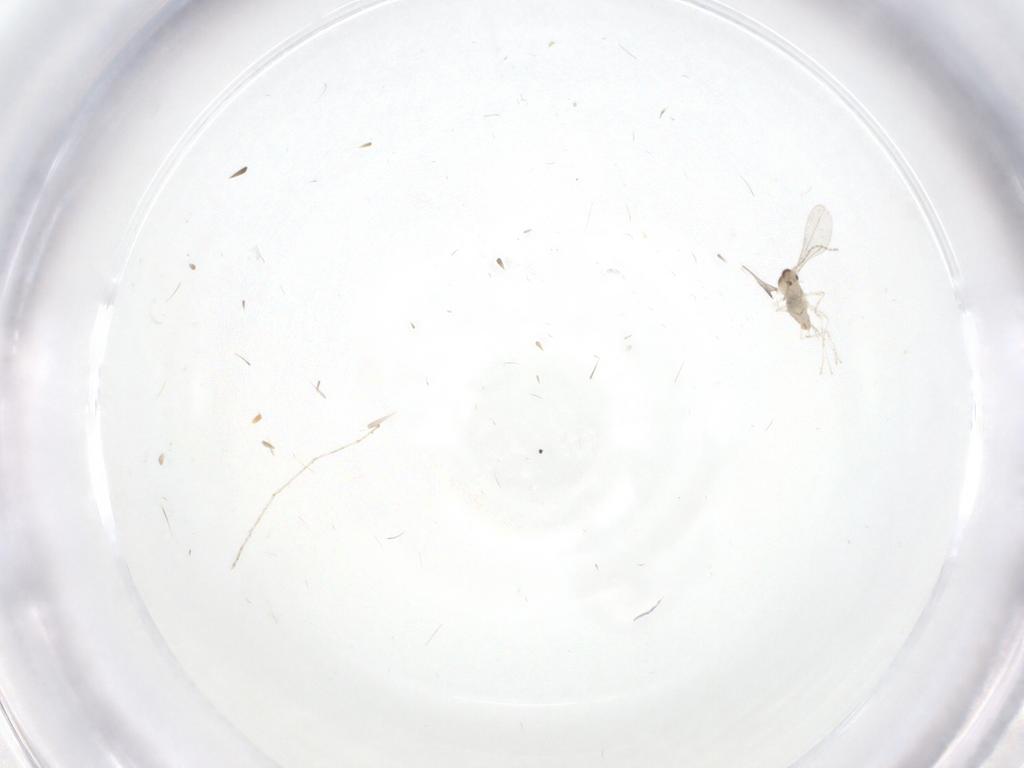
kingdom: Animalia
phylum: Arthropoda
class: Insecta
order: Diptera
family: Cecidomyiidae
